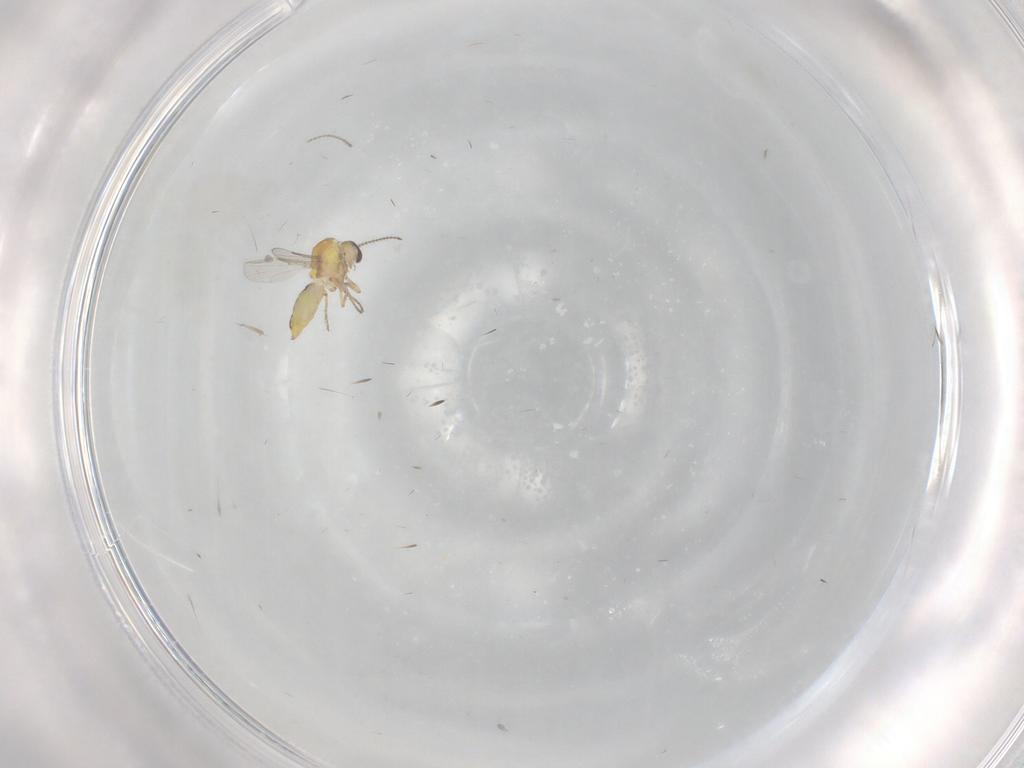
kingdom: Animalia
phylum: Arthropoda
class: Insecta
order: Diptera
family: Ceratopogonidae
